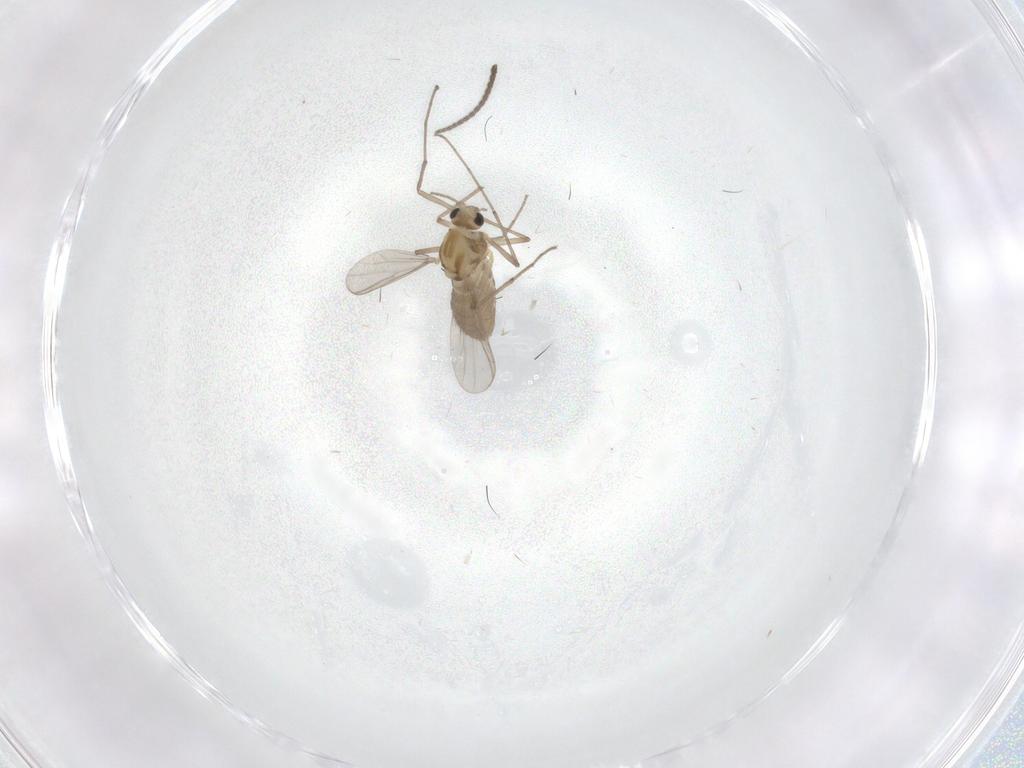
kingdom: Animalia
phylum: Arthropoda
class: Insecta
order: Diptera
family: Chironomidae
